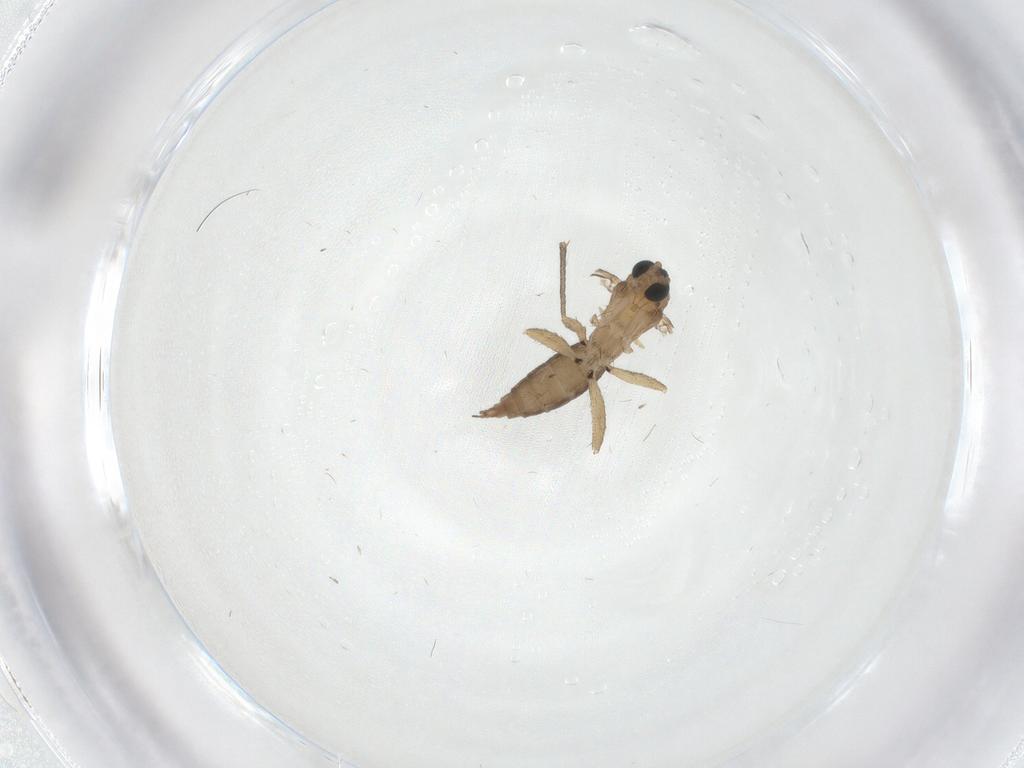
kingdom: Animalia
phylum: Arthropoda
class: Insecta
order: Diptera
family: Sciaridae
